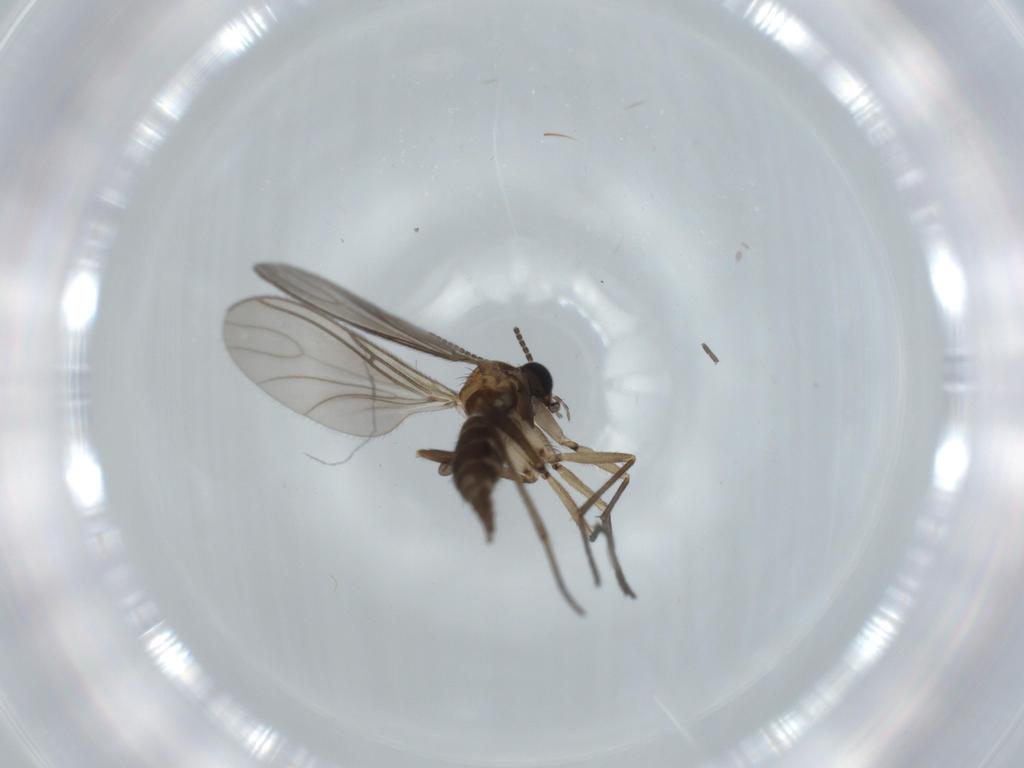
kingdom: Animalia
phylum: Arthropoda
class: Insecta
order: Diptera
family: Sciaridae
